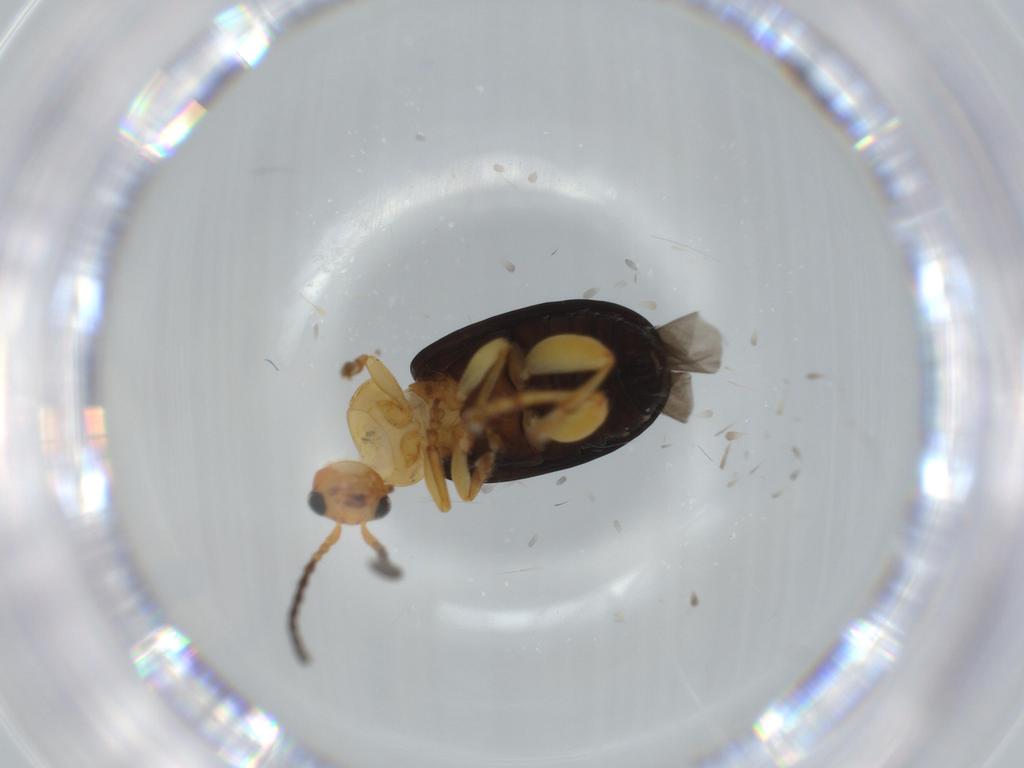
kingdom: Animalia
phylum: Arthropoda
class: Insecta
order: Coleoptera
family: Chrysomelidae
